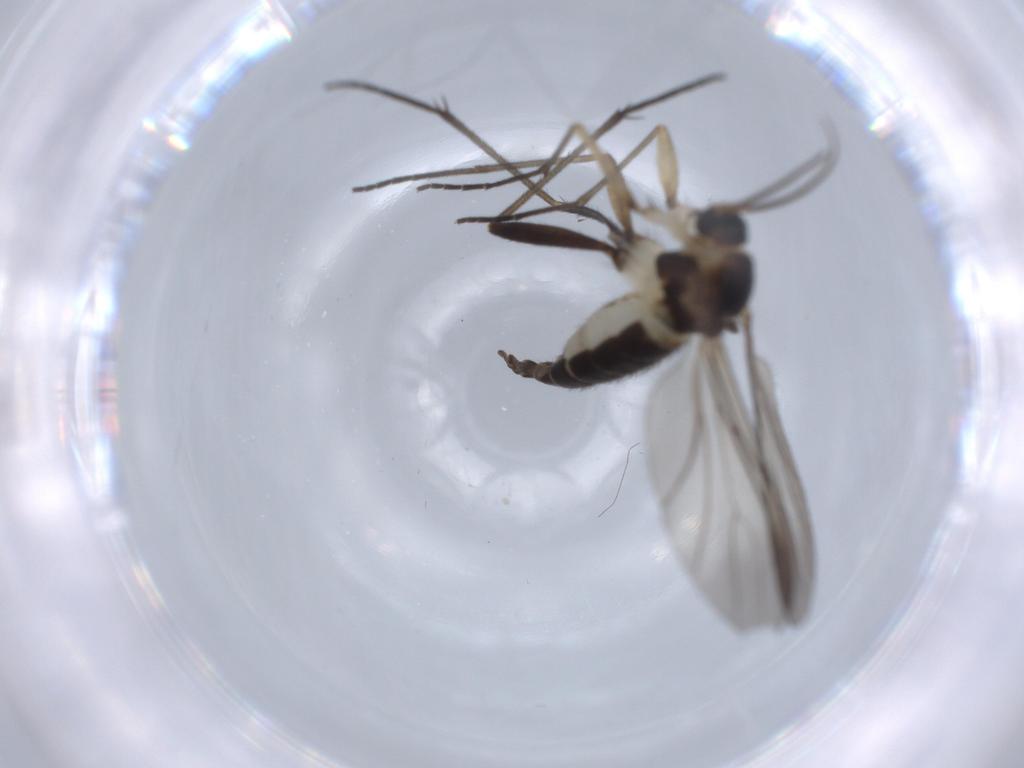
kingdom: Animalia
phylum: Arthropoda
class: Insecta
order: Diptera
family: Sciaridae
